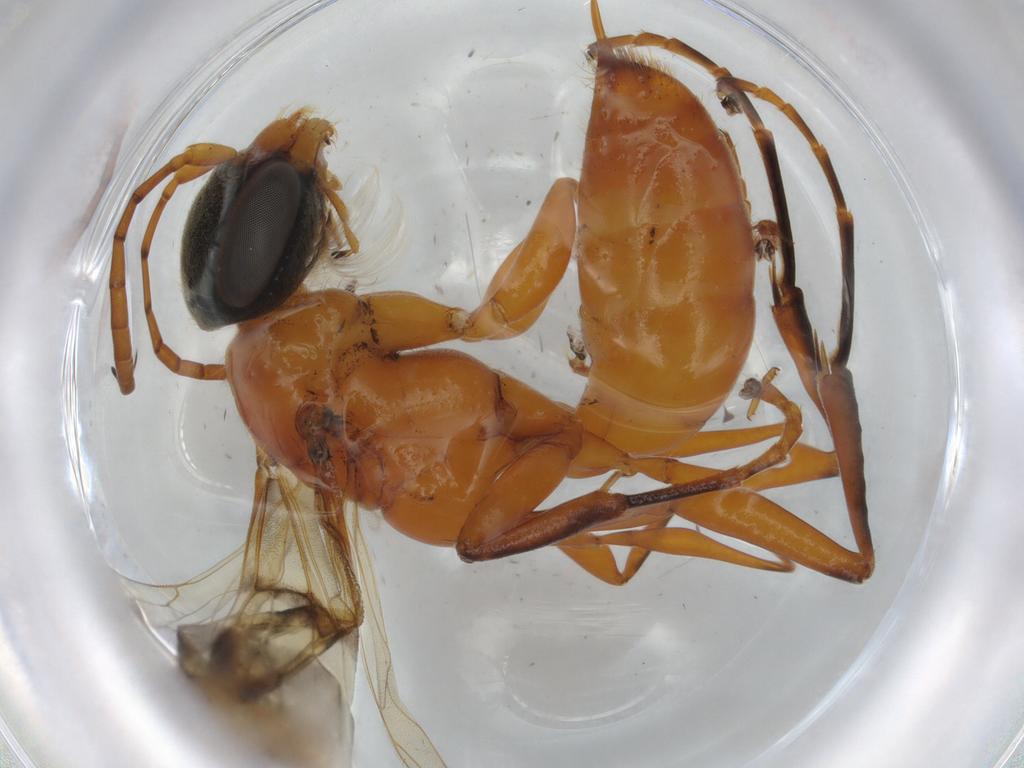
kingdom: Animalia
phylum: Arthropoda
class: Insecta
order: Hymenoptera
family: Pompilidae
